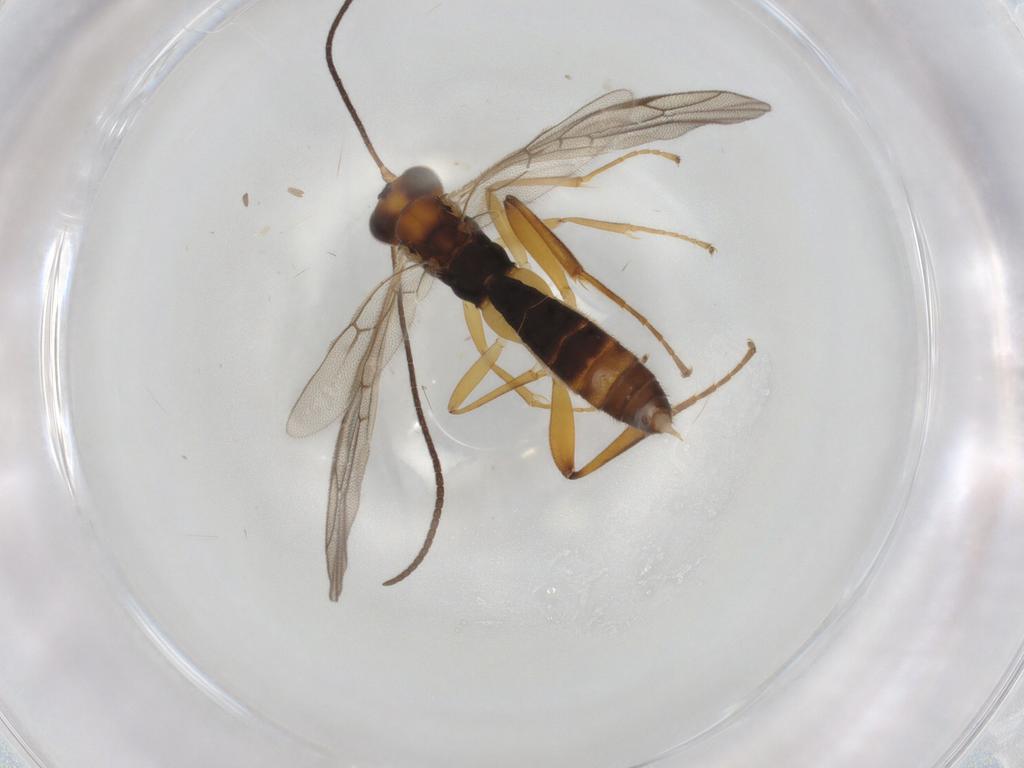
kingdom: Animalia
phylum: Arthropoda
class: Insecta
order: Hymenoptera
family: Ichneumonidae
